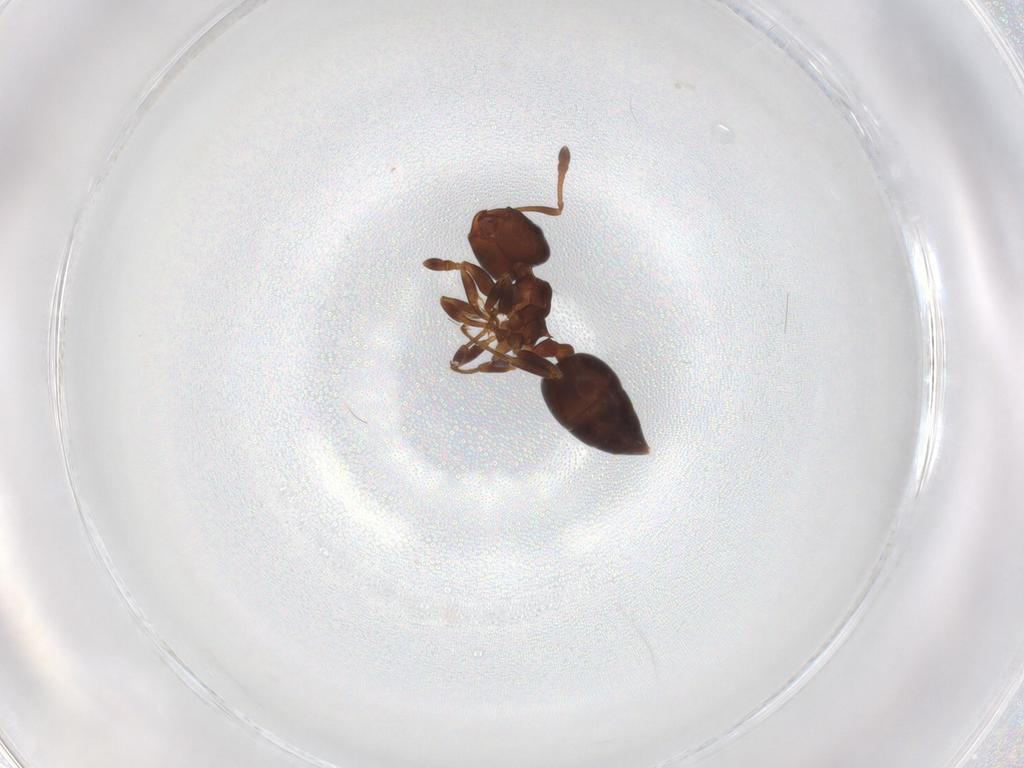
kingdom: Animalia
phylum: Arthropoda
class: Insecta
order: Hymenoptera
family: Formicidae
